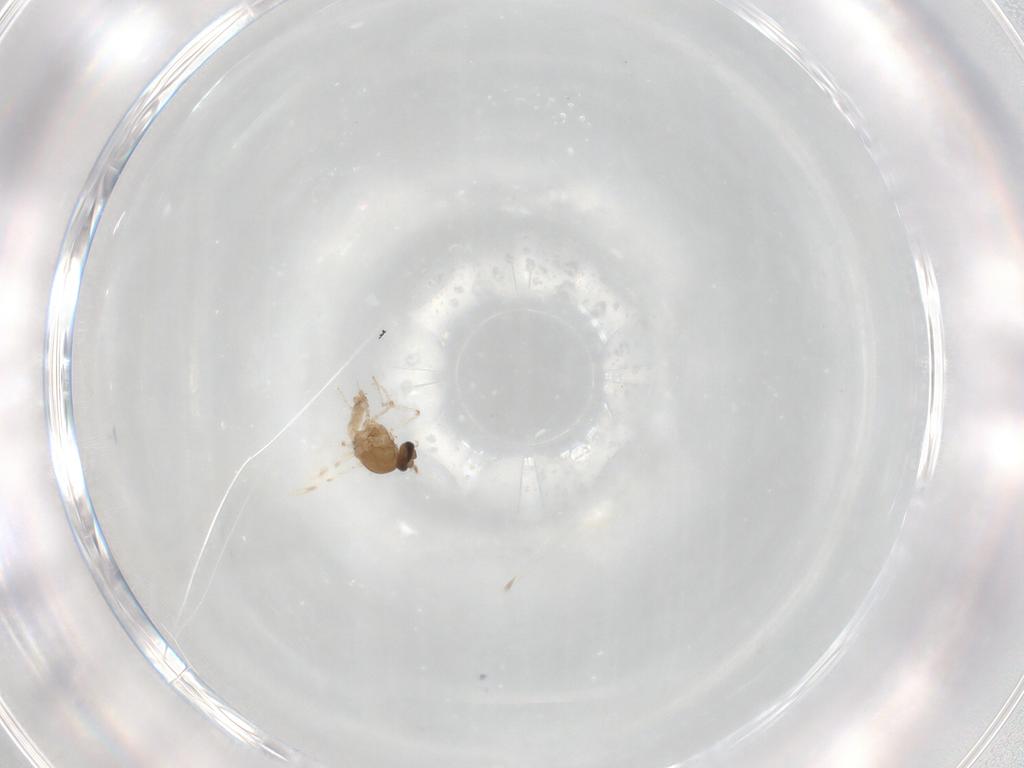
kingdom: Animalia
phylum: Arthropoda
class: Insecta
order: Diptera
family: Ceratopogonidae
